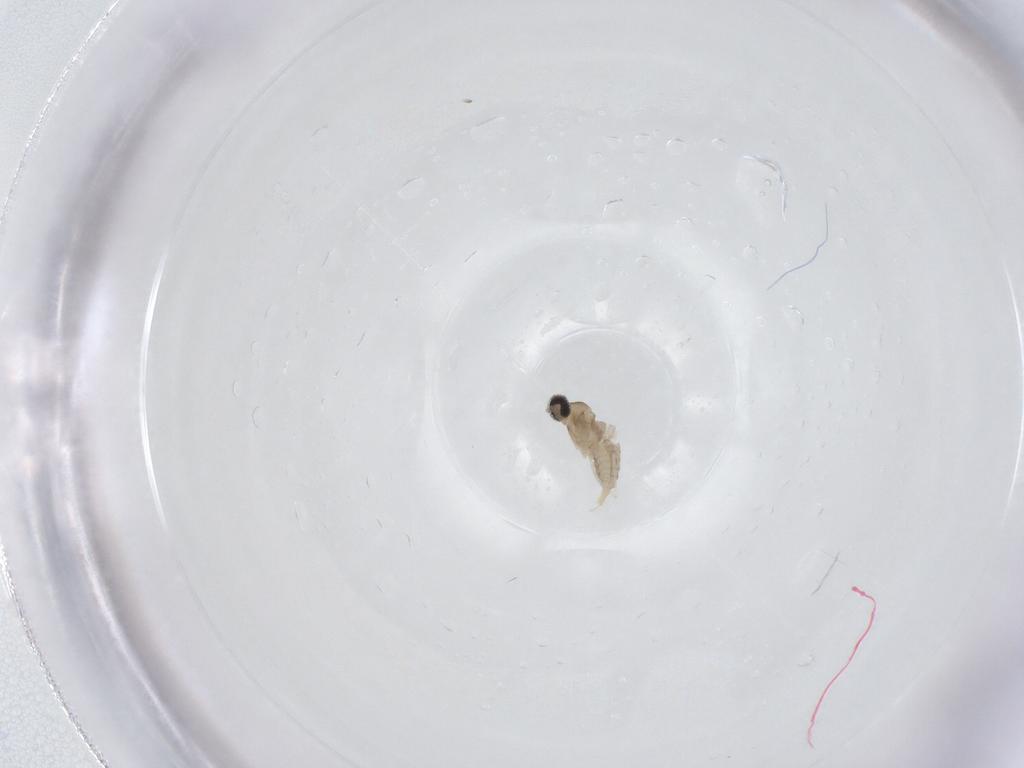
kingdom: Animalia
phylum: Arthropoda
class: Insecta
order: Diptera
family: Cecidomyiidae
